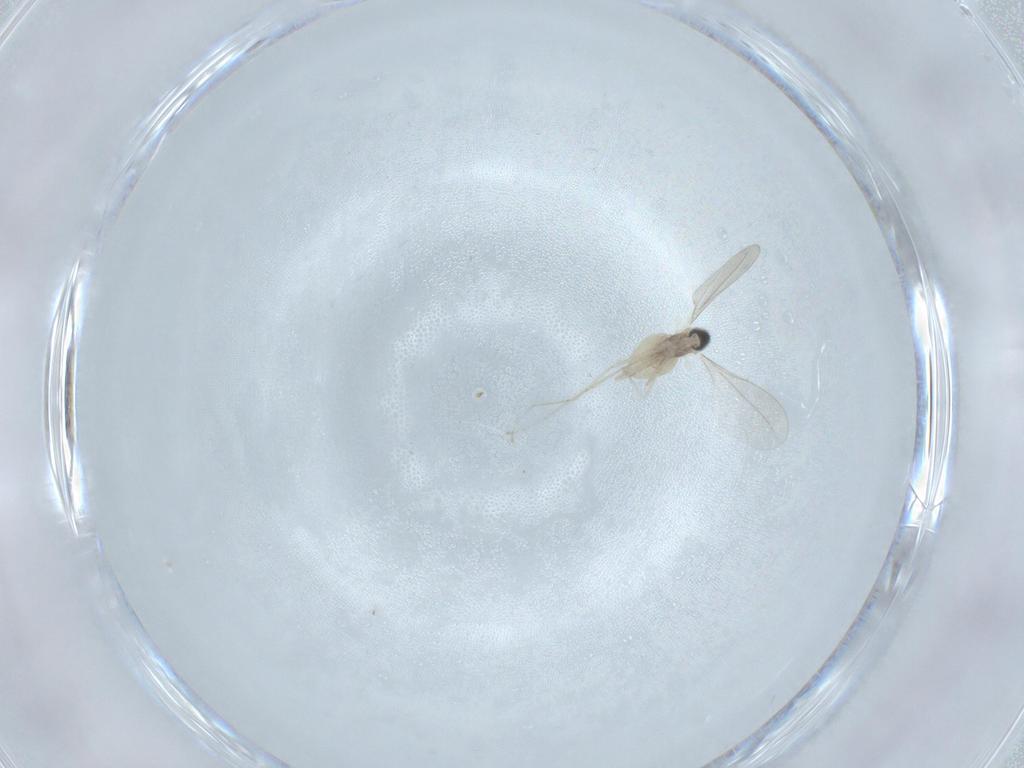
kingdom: Animalia
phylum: Arthropoda
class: Insecta
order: Diptera
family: Cecidomyiidae
